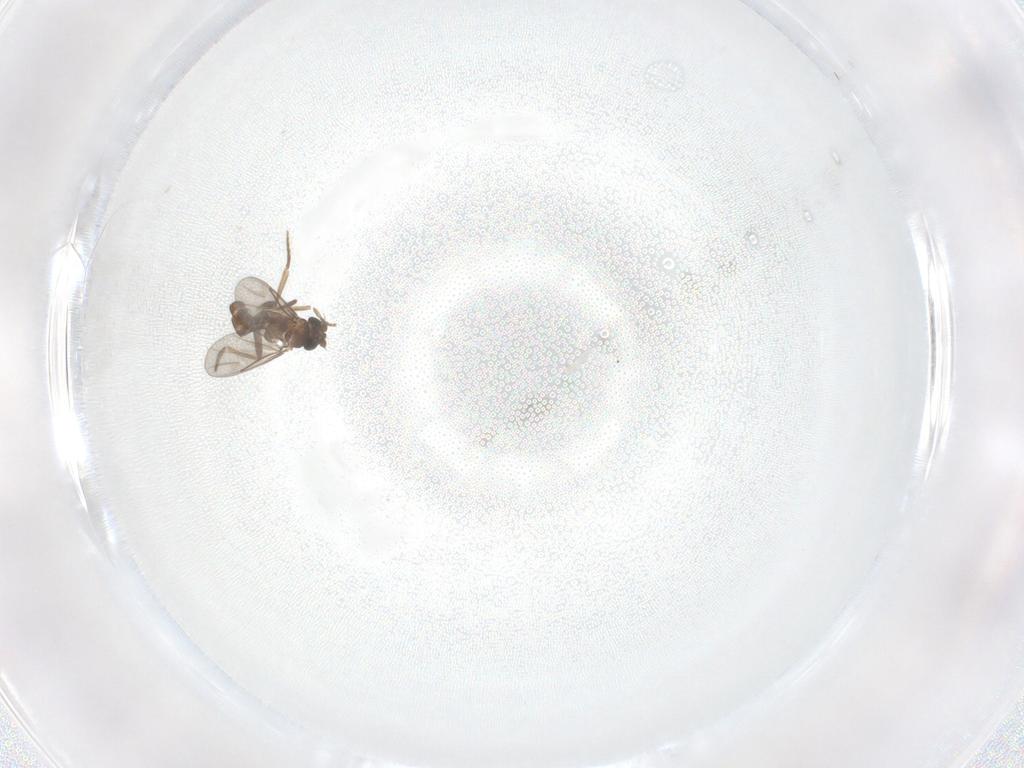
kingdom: Animalia
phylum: Arthropoda
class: Insecta
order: Diptera
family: Chironomidae
